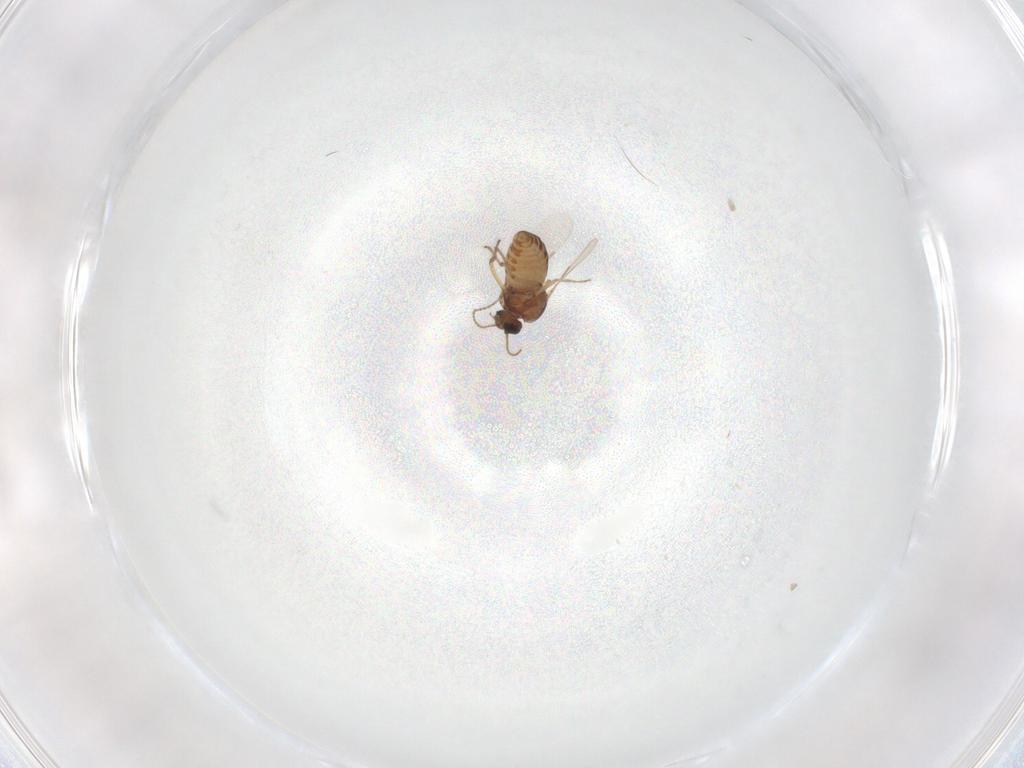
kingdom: Animalia
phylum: Arthropoda
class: Insecta
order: Diptera
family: Ceratopogonidae
